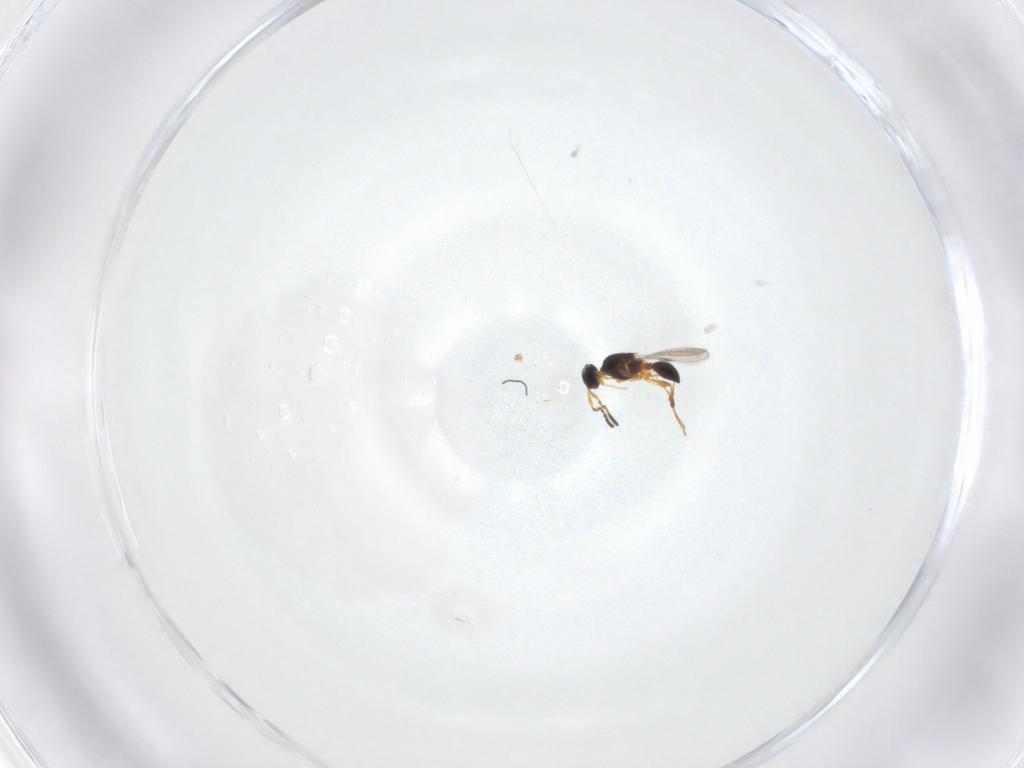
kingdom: Animalia
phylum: Arthropoda
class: Insecta
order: Hymenoptera
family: Platygastridae
